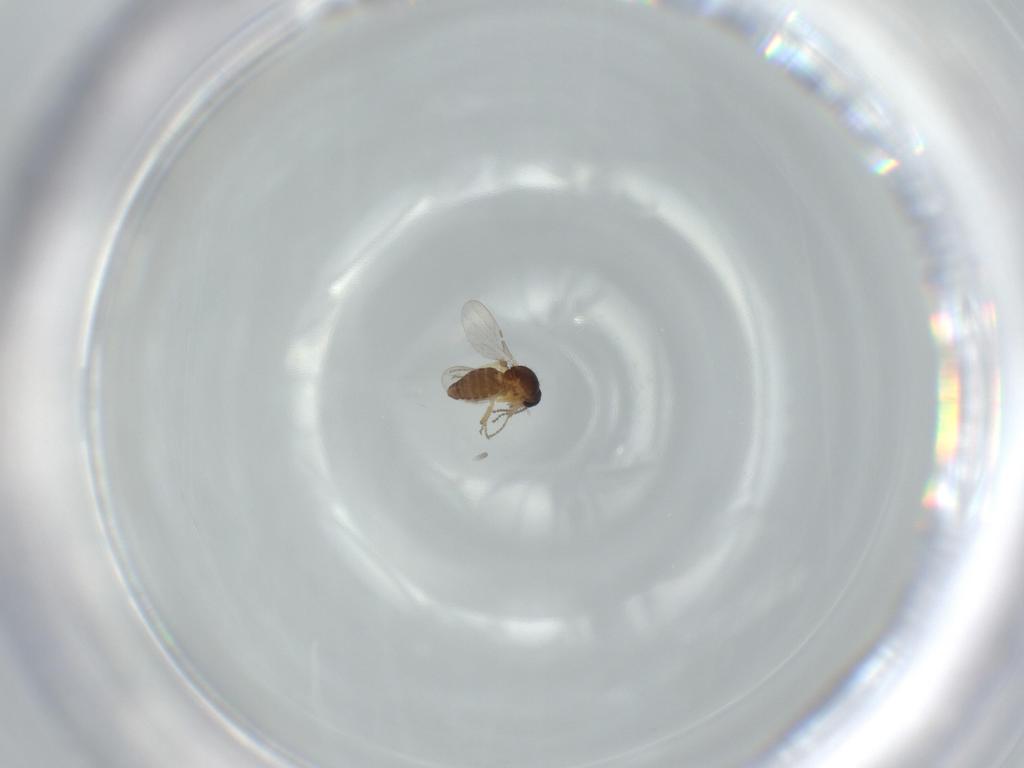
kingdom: Animalia
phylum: Arthropoda
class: Insecta
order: Diptera
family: Ceratopogonidae
